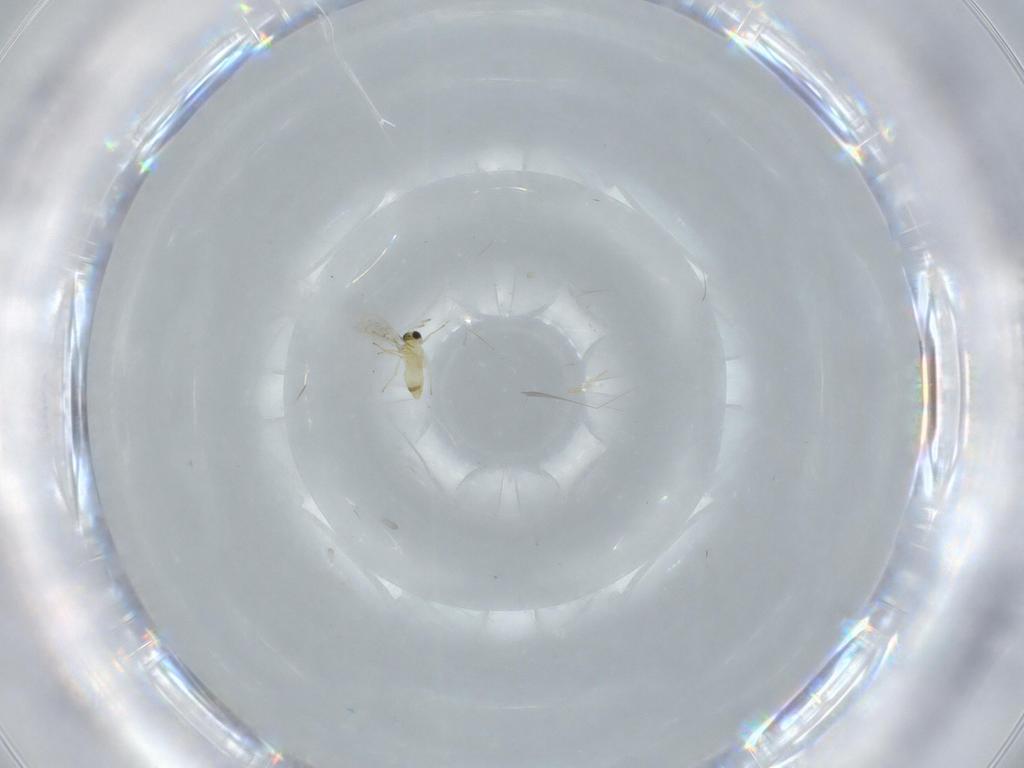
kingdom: Animalia
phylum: Arthropoda
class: Insecta
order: Hymenoptera
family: Trichogrammatidae
